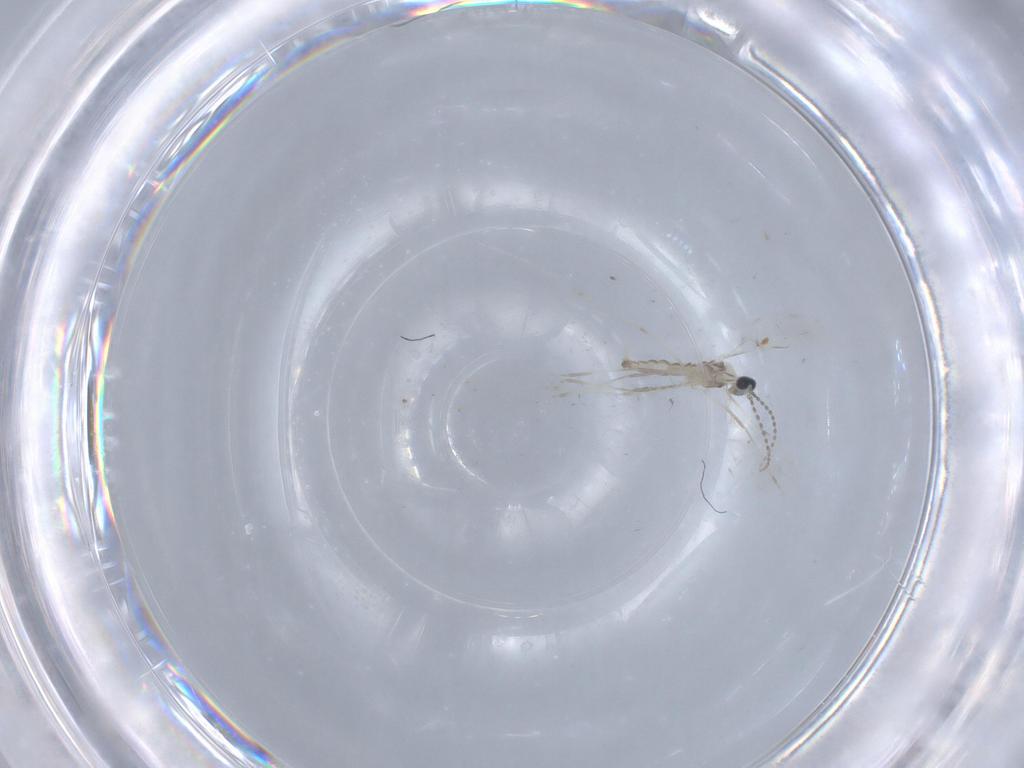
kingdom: Animalia
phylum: Arthropoda
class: Insecta
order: Diptera
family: Cecidomyiidae
